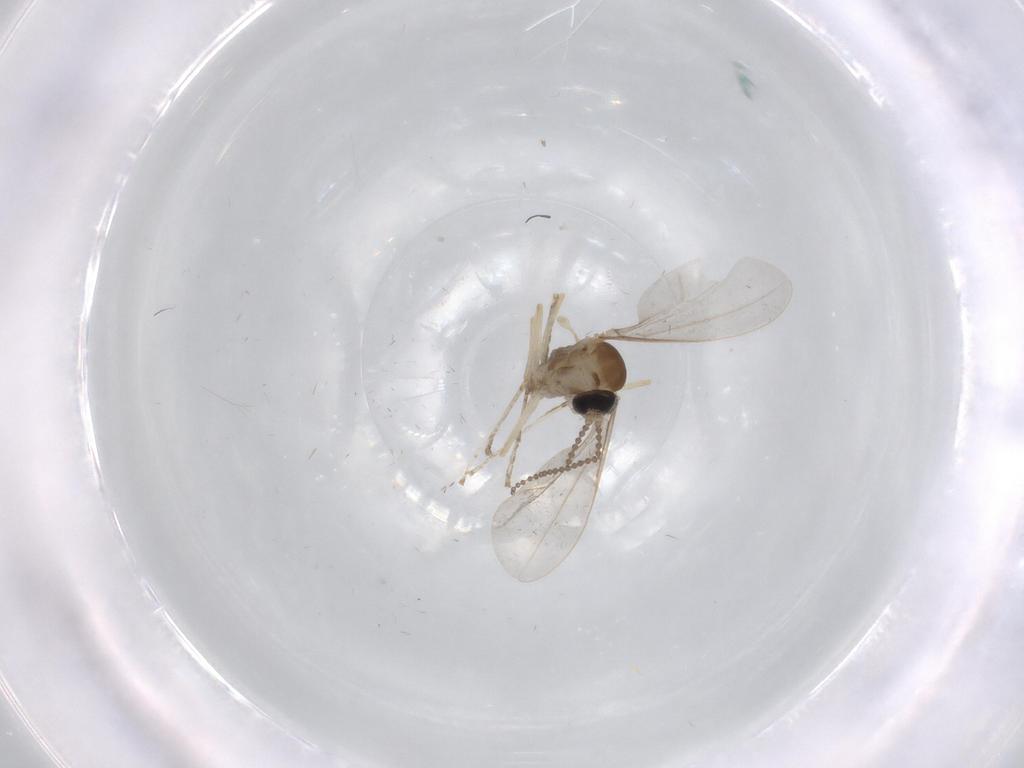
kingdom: Animalia
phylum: Arthropoda
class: Insecta
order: Diptera
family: Cecidomyiidae
